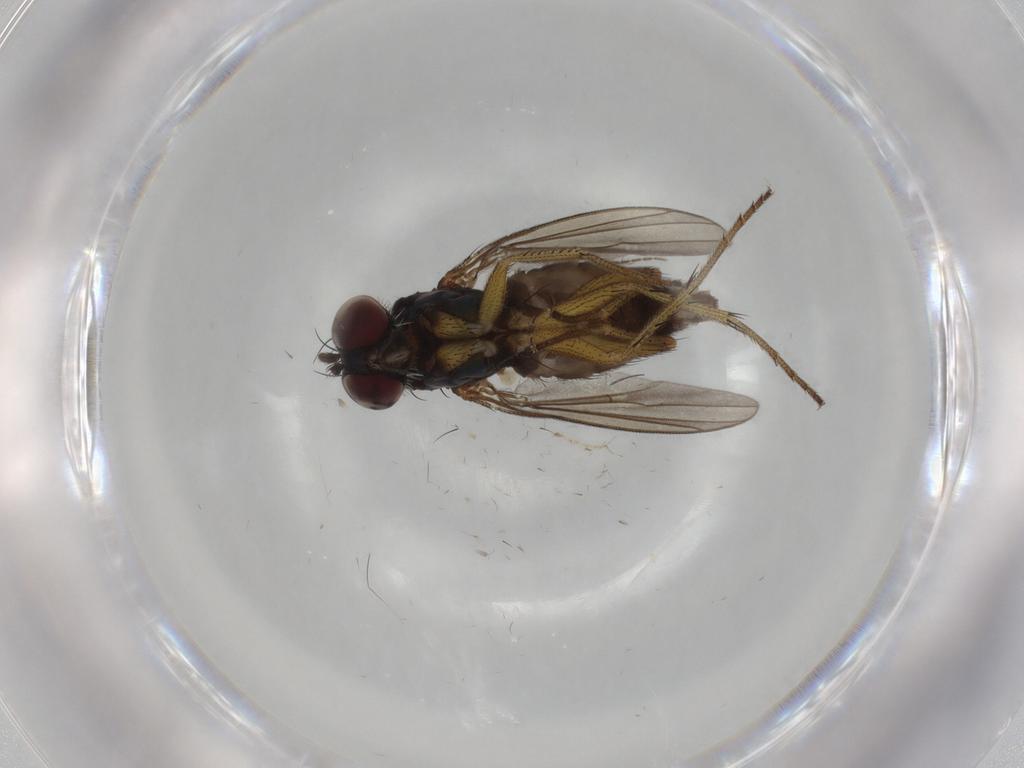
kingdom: Animalia
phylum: Arthropoda
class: Insecta
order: Diptera
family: Dolichopodidae
